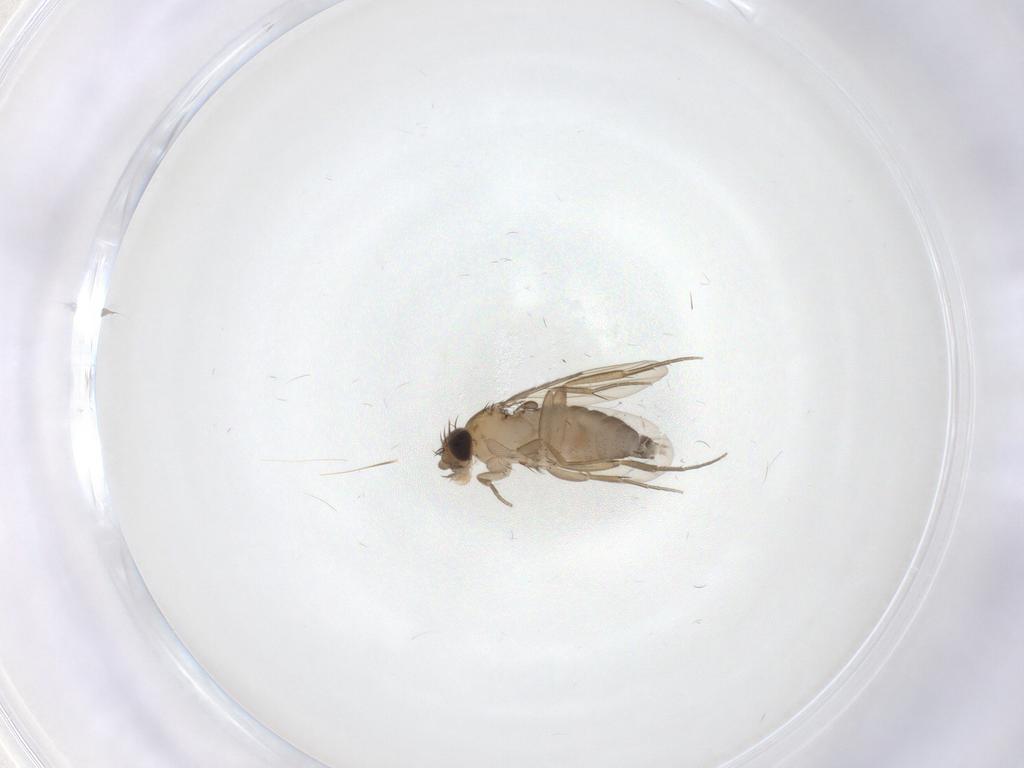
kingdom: Animalia
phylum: Arthropoda
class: Insecta
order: Diptera
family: Phoridae
